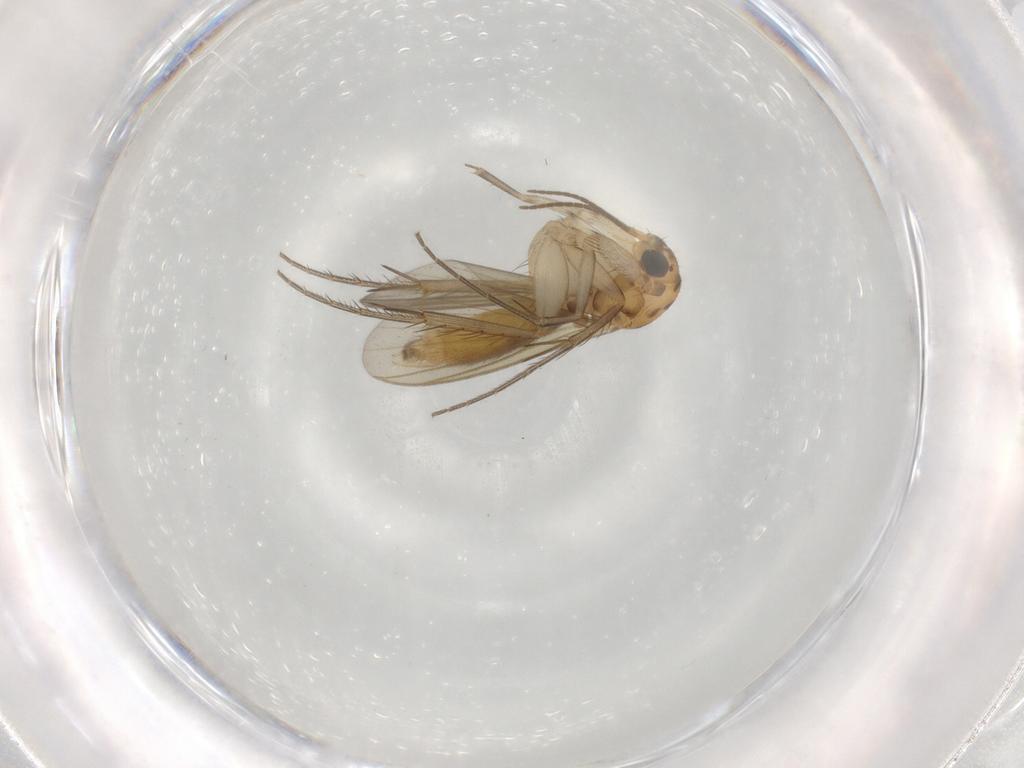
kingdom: Animalia
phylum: Arthropoda
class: Insecta
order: Diptera
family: Mycetophilidae
